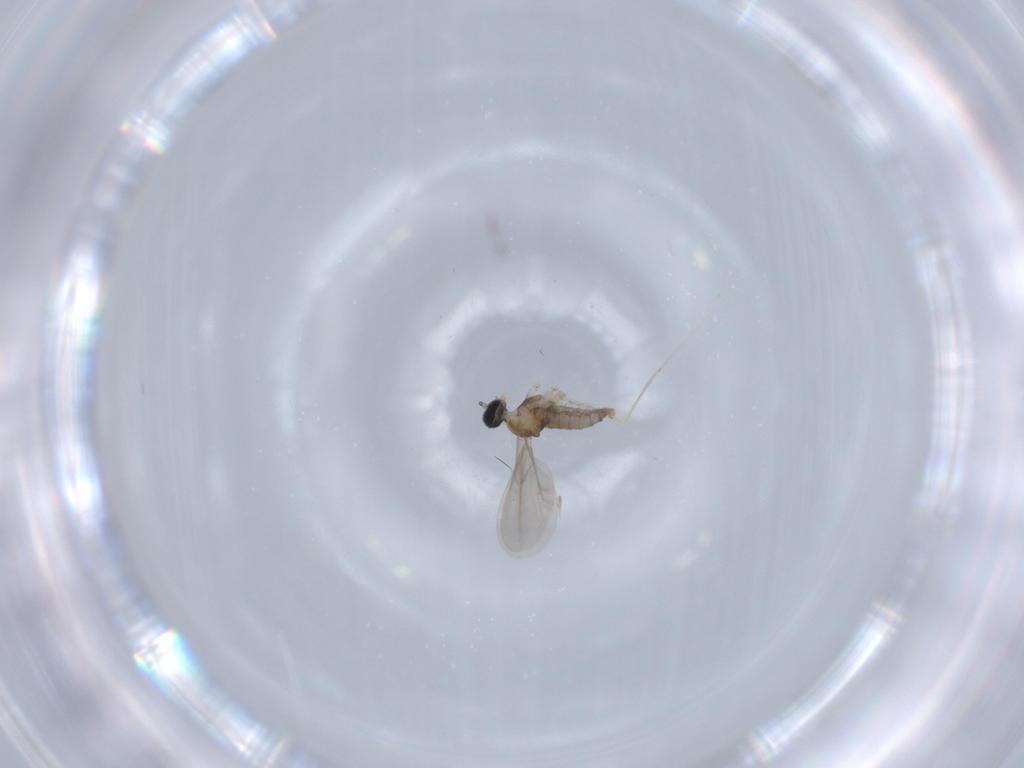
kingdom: Animalia
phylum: Arthropoda
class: Insecta
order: Diptera
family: Cecidomyiidae
